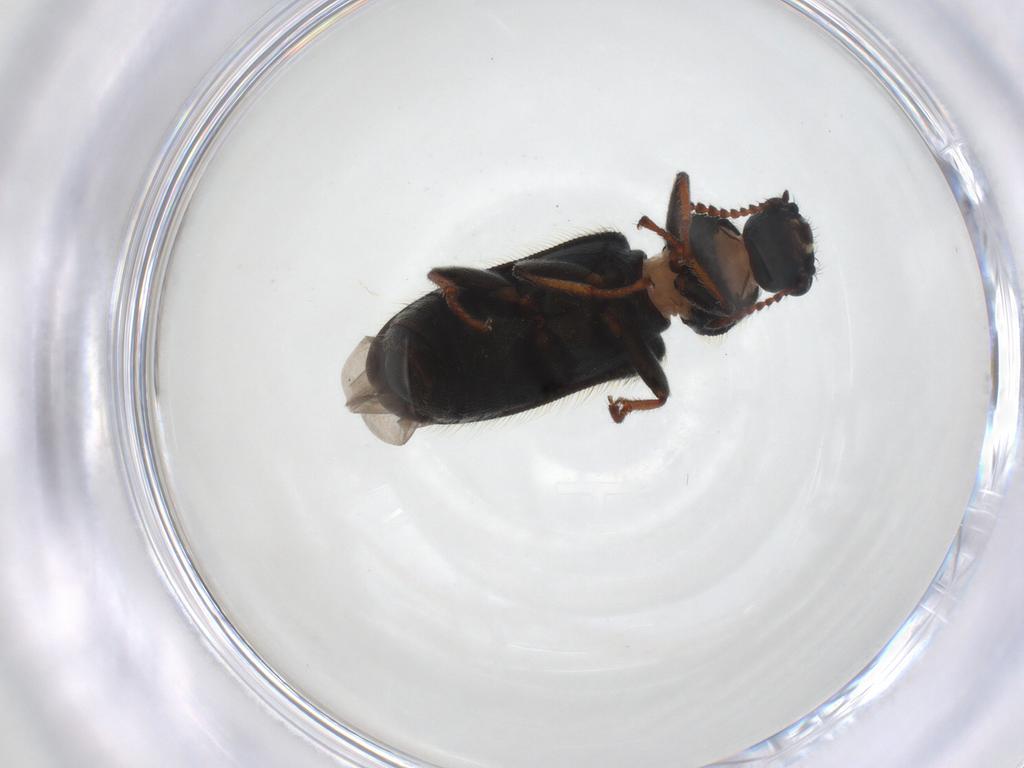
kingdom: Animalia
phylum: Arthropoda
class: Insecta
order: Coleoptera
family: Melyridae
